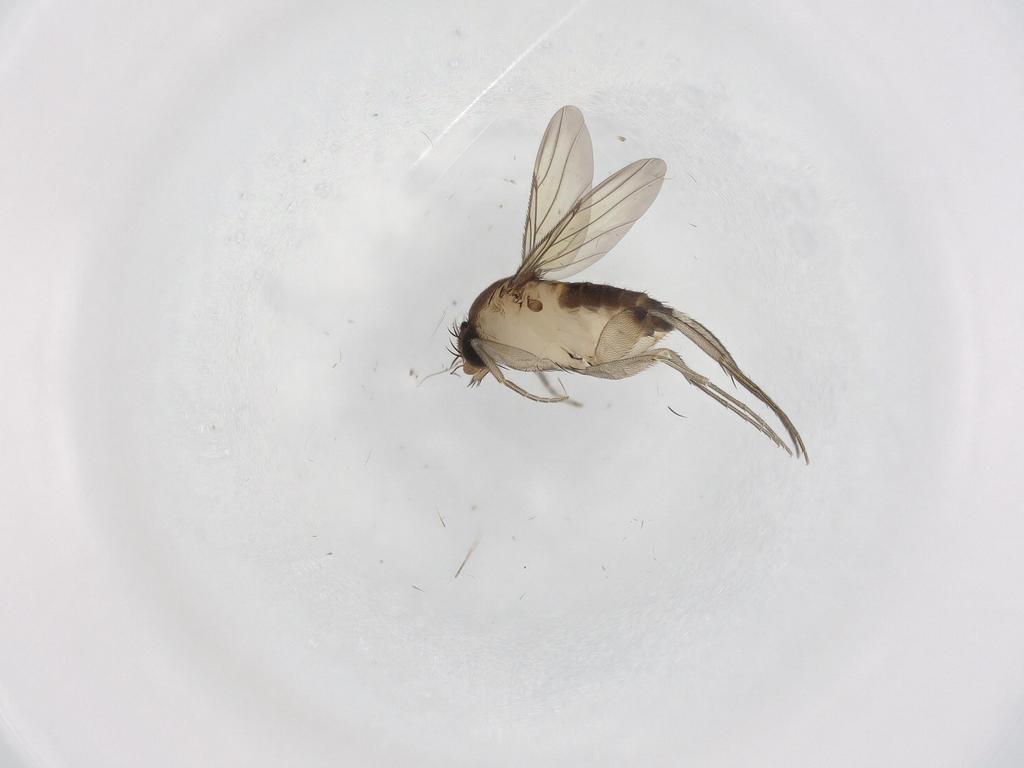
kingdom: Animalia
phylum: Arthropoda
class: Insecta
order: Diptera
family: Phoridae
